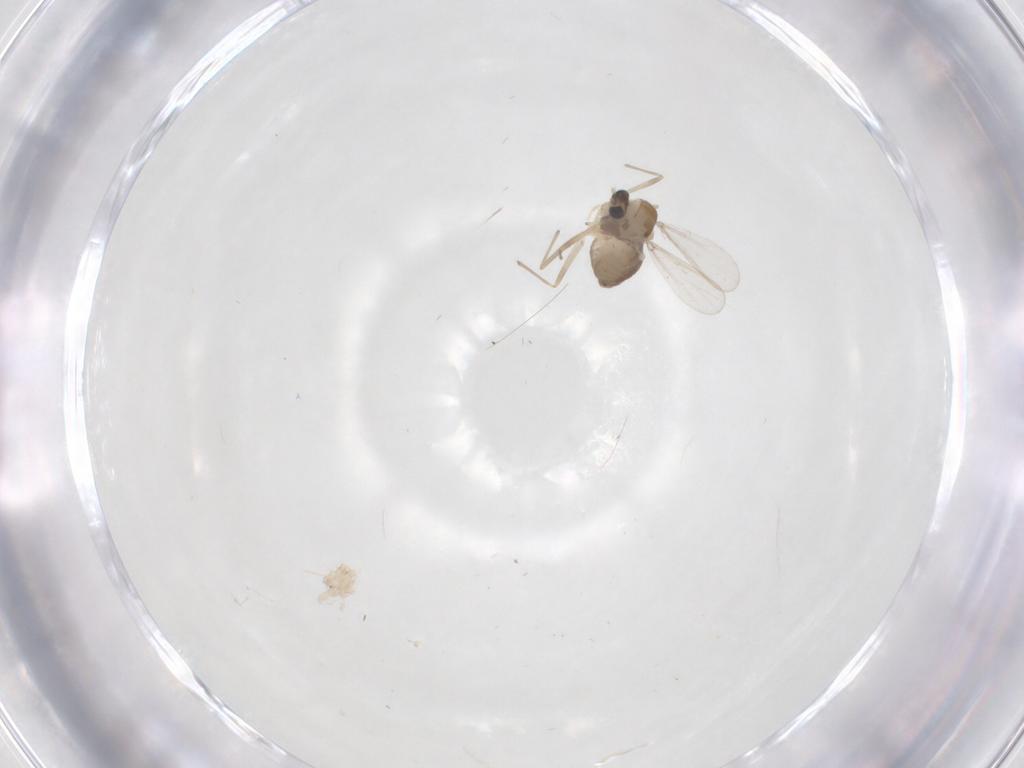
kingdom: Animalia
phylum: Arthropoda
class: Insecta
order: Diptera
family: Chironomidae
